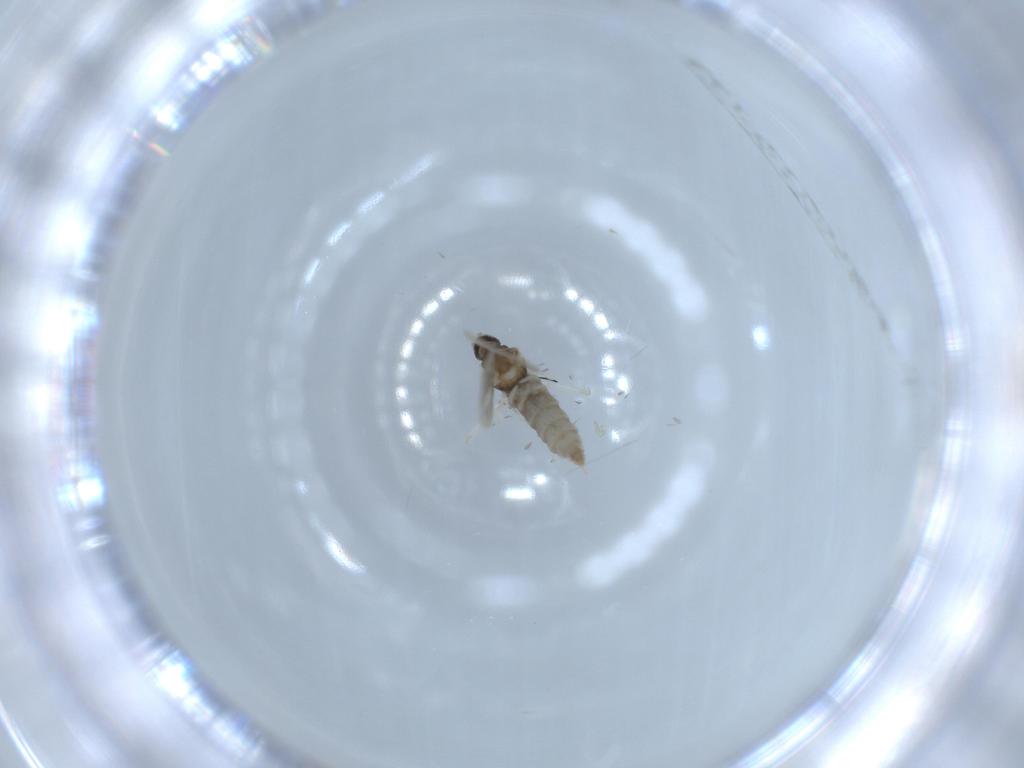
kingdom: Animalia
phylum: Arthropoda
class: Insecta
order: Diptera
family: Cecidomyiidae
